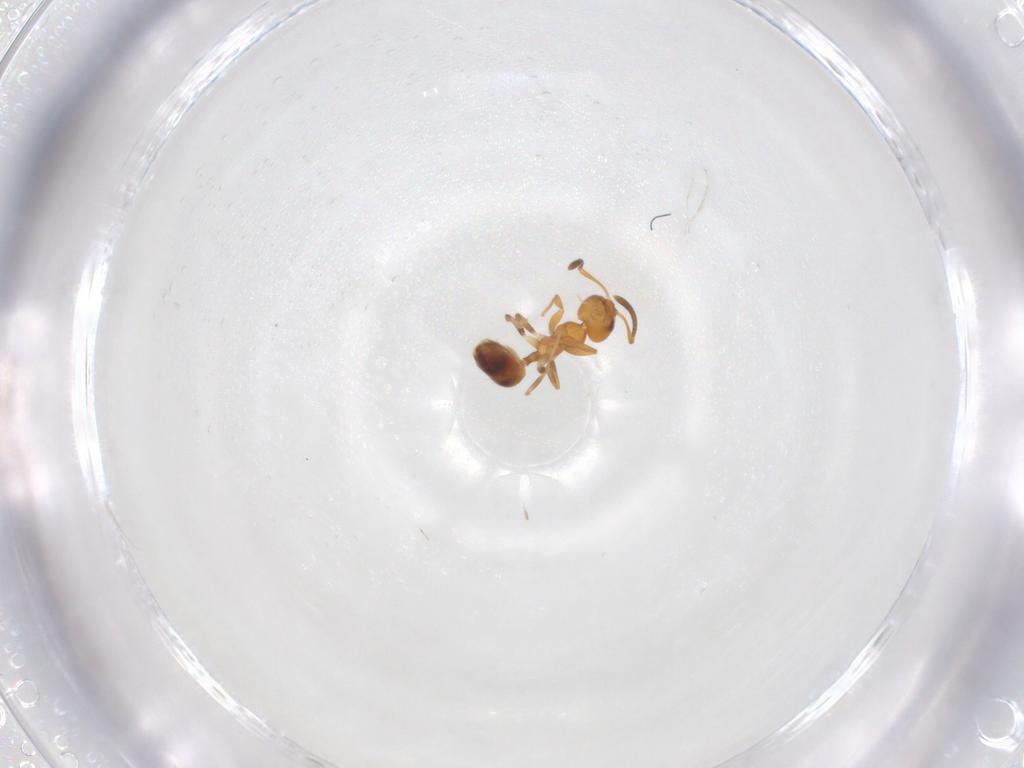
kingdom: Animalia
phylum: Arthropoda
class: Insecta
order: Hymenoptera
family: Formicidae
